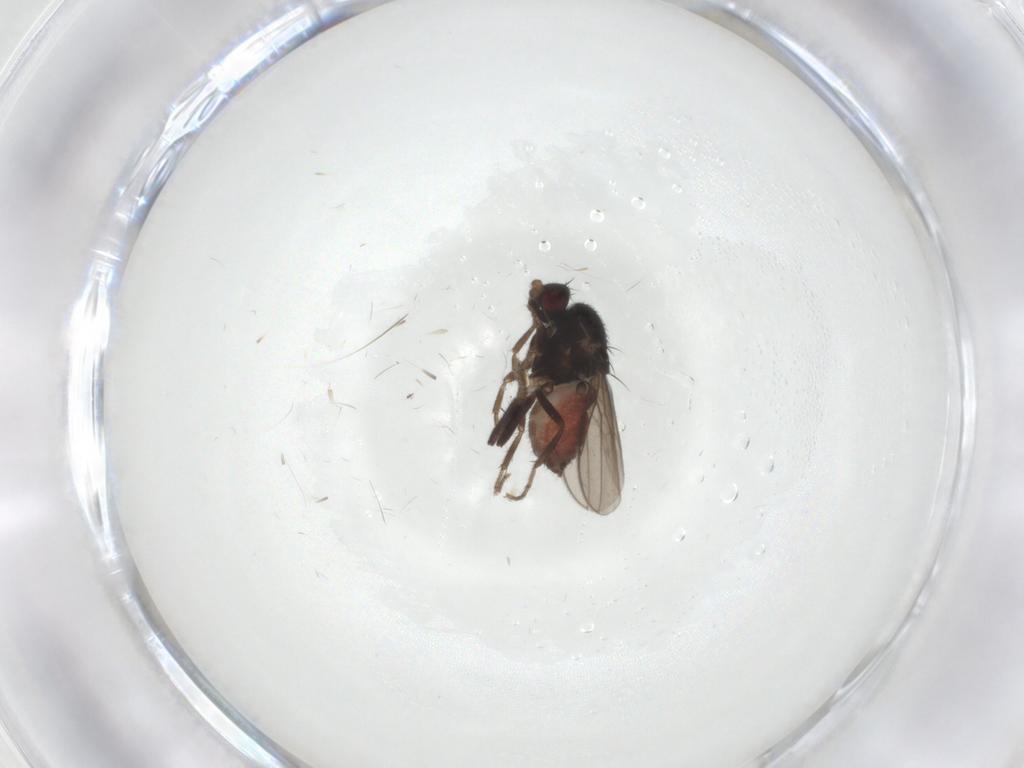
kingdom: Animalia
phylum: Arthropoda
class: Insecta
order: Diptera
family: Sphaeroceridae
